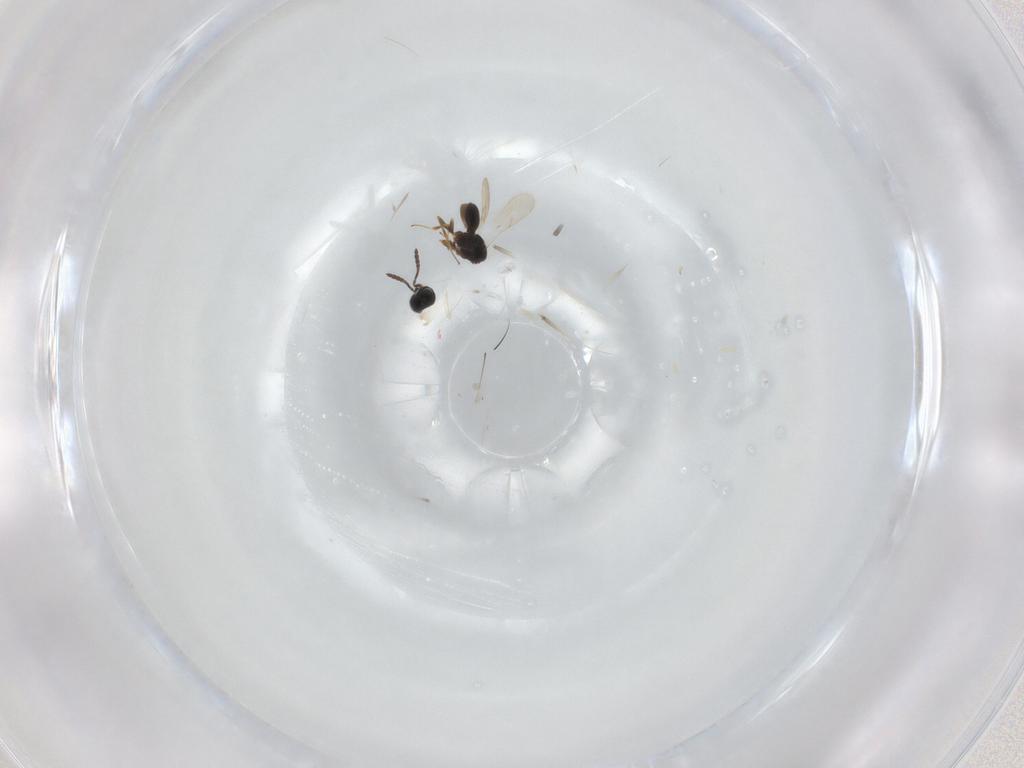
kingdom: Animalia
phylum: Arthropoda
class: Insecta
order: Hymenoptera
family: Scelionidae
